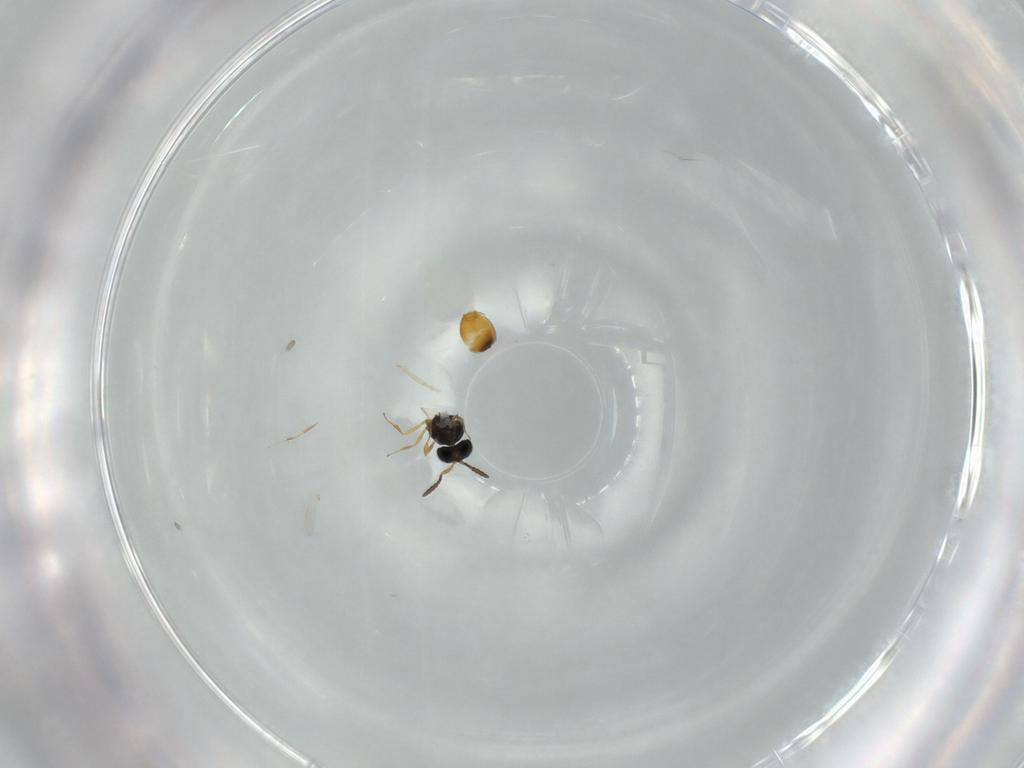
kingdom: Animalia
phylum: Arthropoda
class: Insecta
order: Hymenoptera
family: Scelionidae
